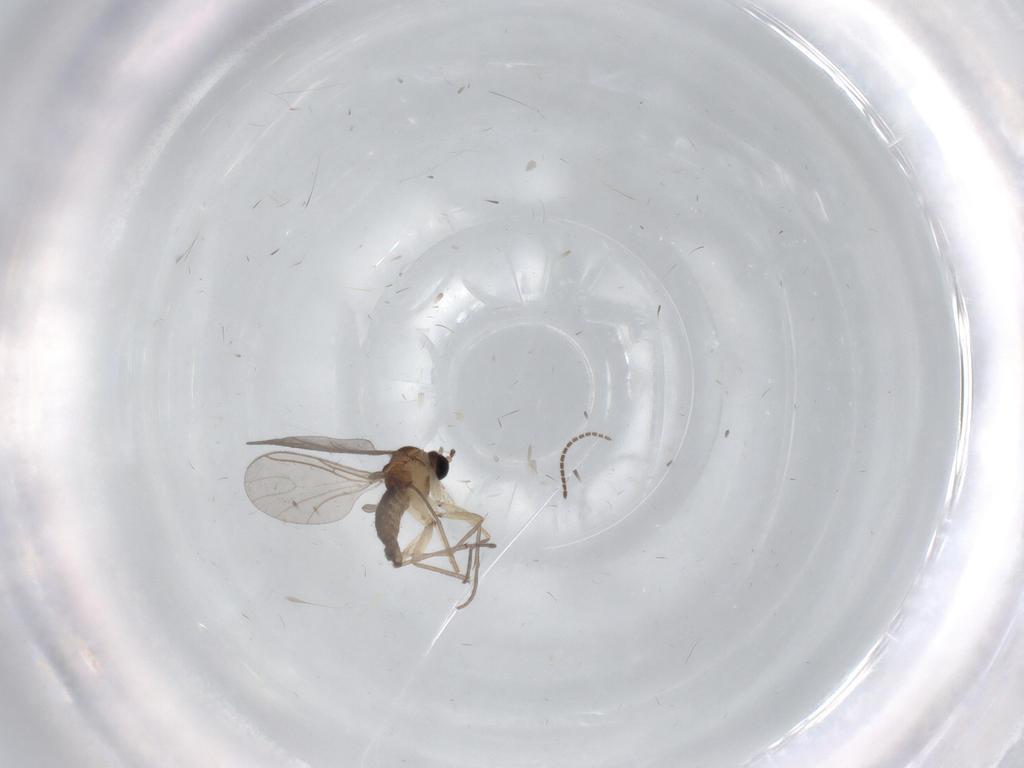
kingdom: Animalia
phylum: Arthropoda
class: Insecta
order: Diptera
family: Sciaridae
